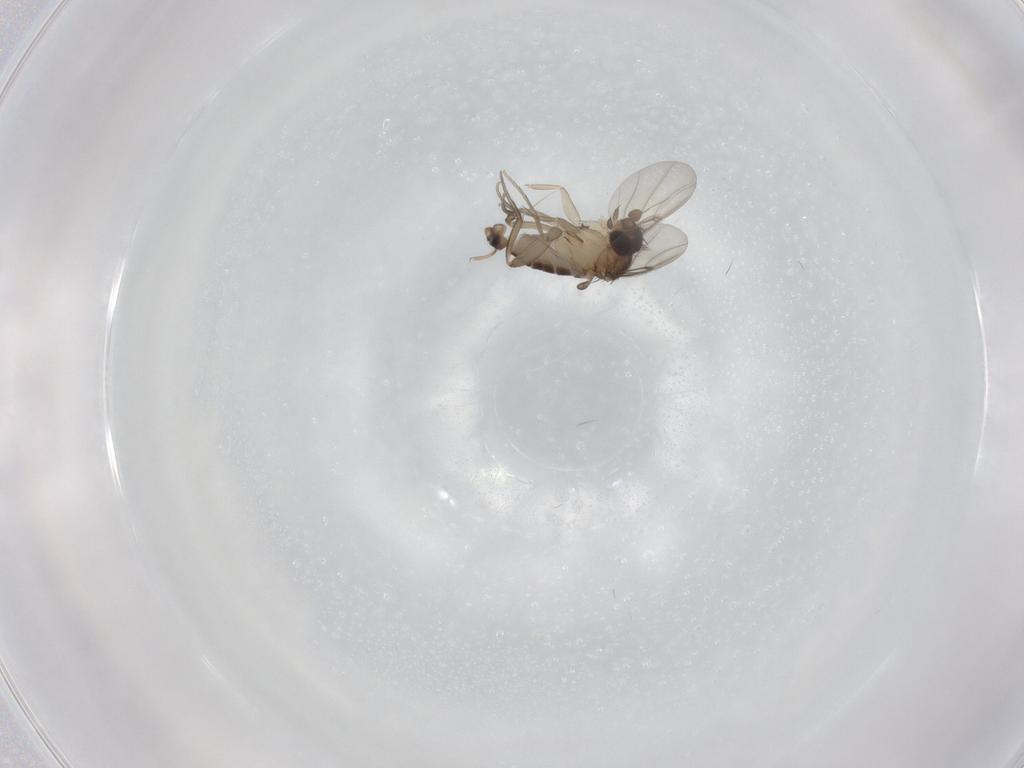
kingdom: Animalia
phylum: Arthropoda
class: Insecta
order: Diptera
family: Phoridae
